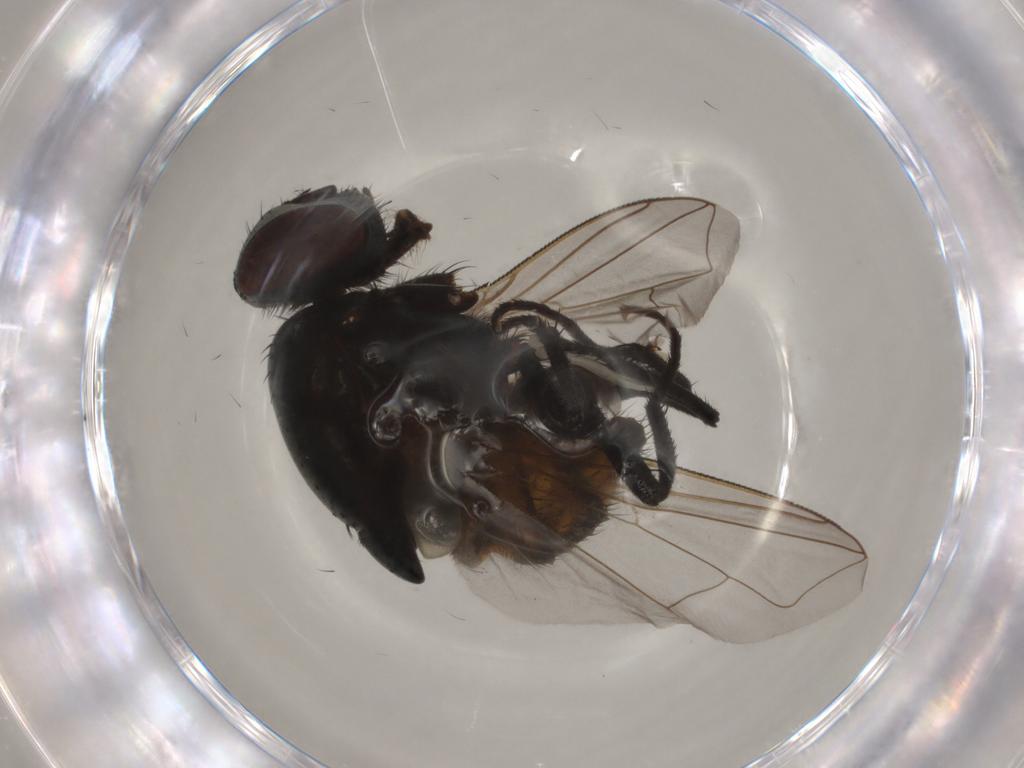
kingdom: Animalia
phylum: Arthropoda
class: Insecta
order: Diptera
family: Muscidae
